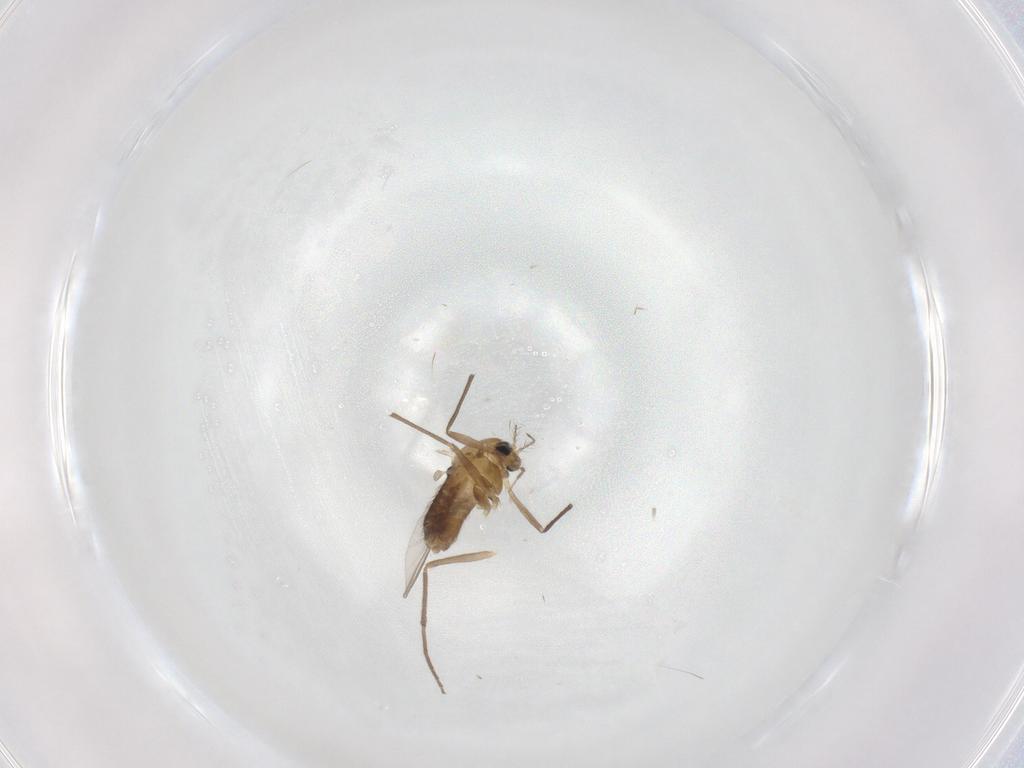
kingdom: Animalia
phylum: Arthropoda
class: Insecta
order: Diptera
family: Chironomidae
